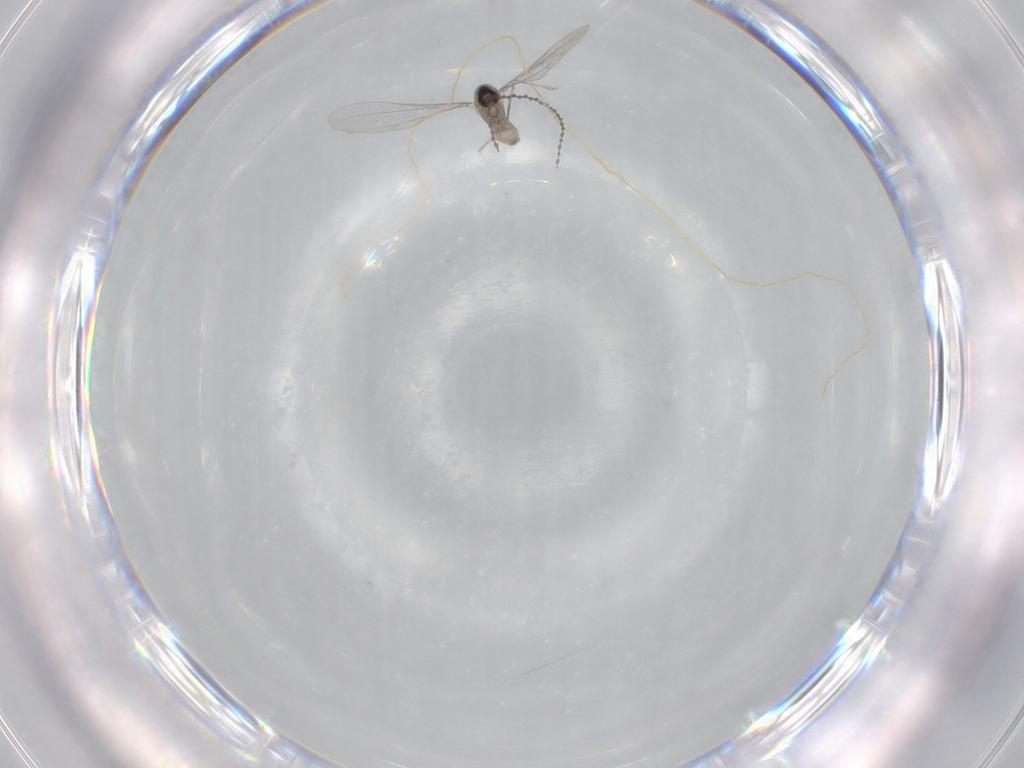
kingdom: Animalia
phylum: Arthropoda
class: Insecta
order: Diptera
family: Cecidomyiidae
